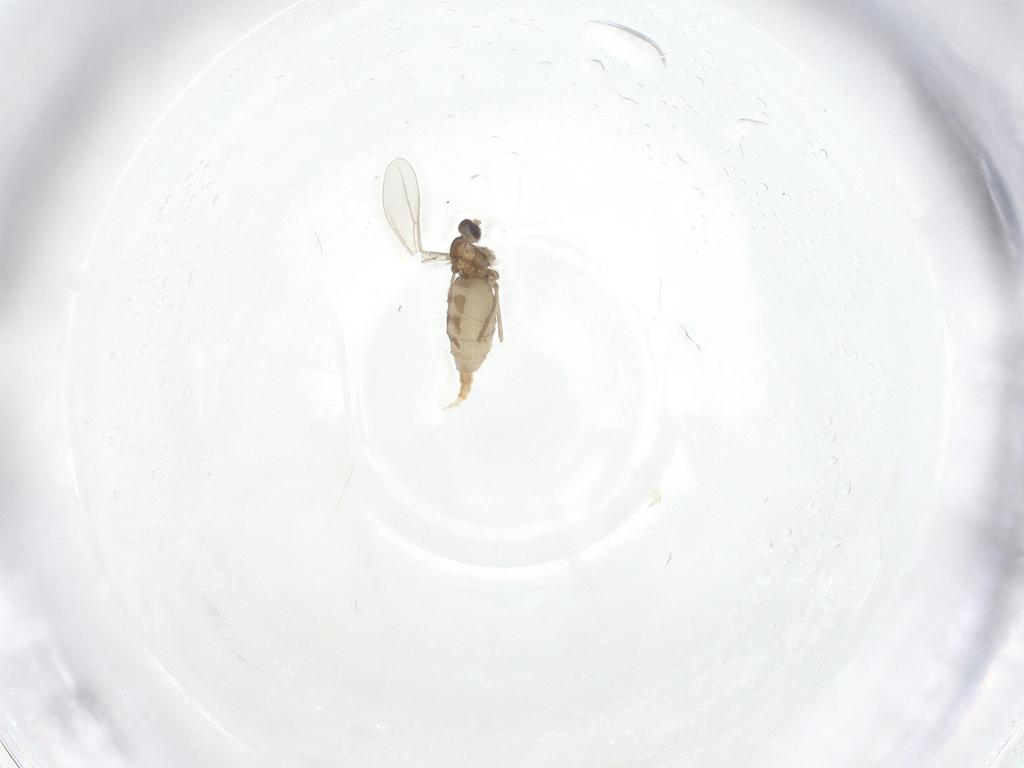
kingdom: Animalia
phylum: Arthropoda
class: Insecta
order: Diptera
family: Cecidomyiidae
